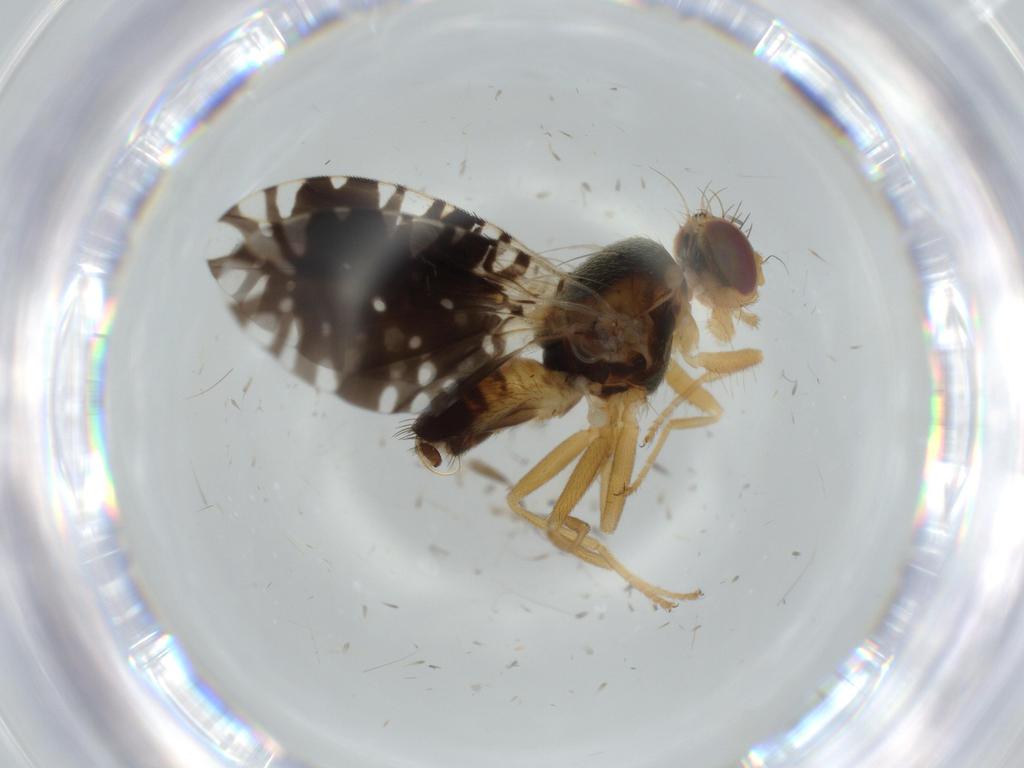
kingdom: Animalia
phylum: Arthropoda
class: Insecta
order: Diptera
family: Tephritidae
